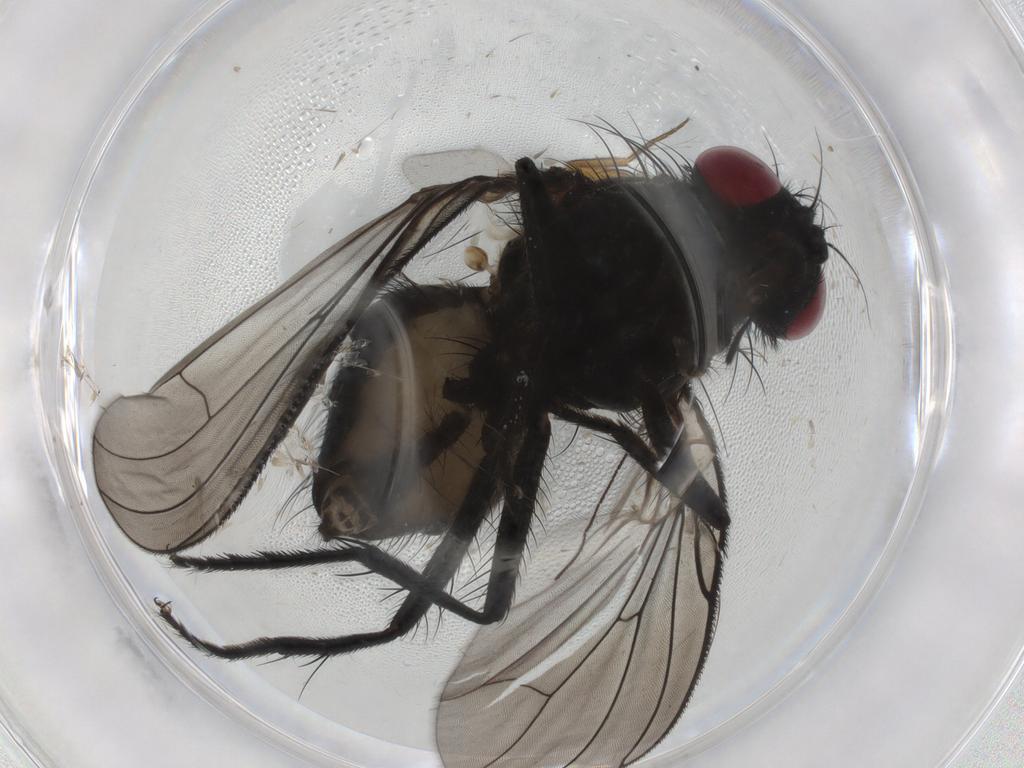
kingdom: Animalia
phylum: Arthropoda
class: Insecta
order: Diptera
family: Fannia
